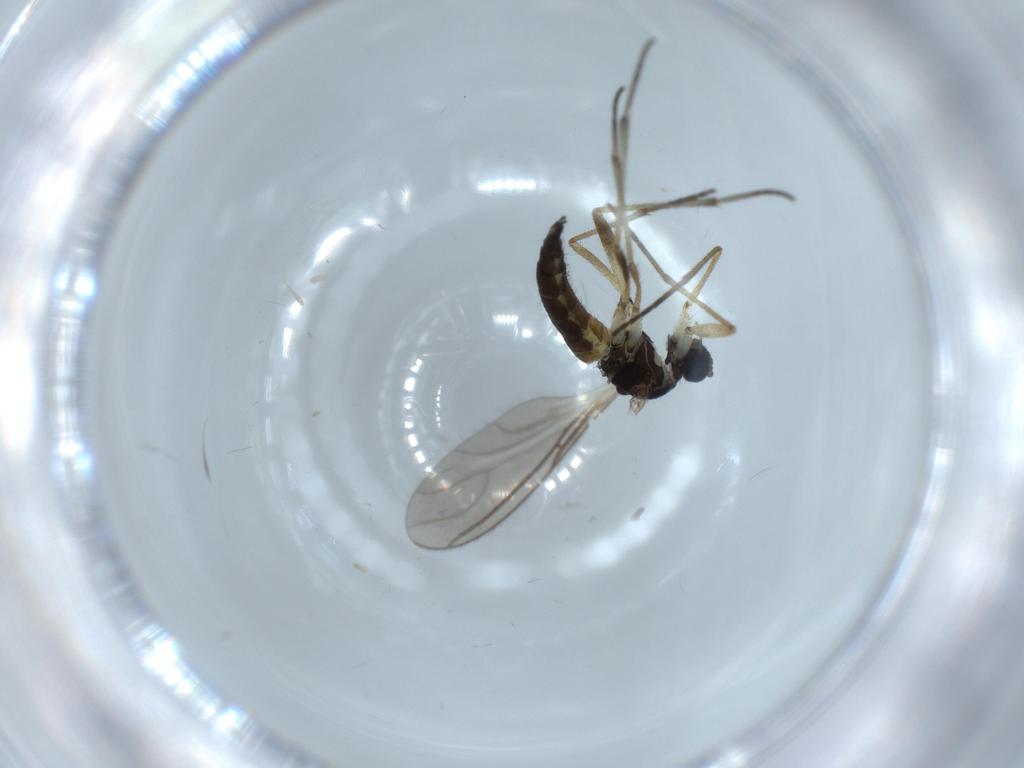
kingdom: Animalia
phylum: Arthropoda
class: Insecta
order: Diptera
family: Sciaridae
